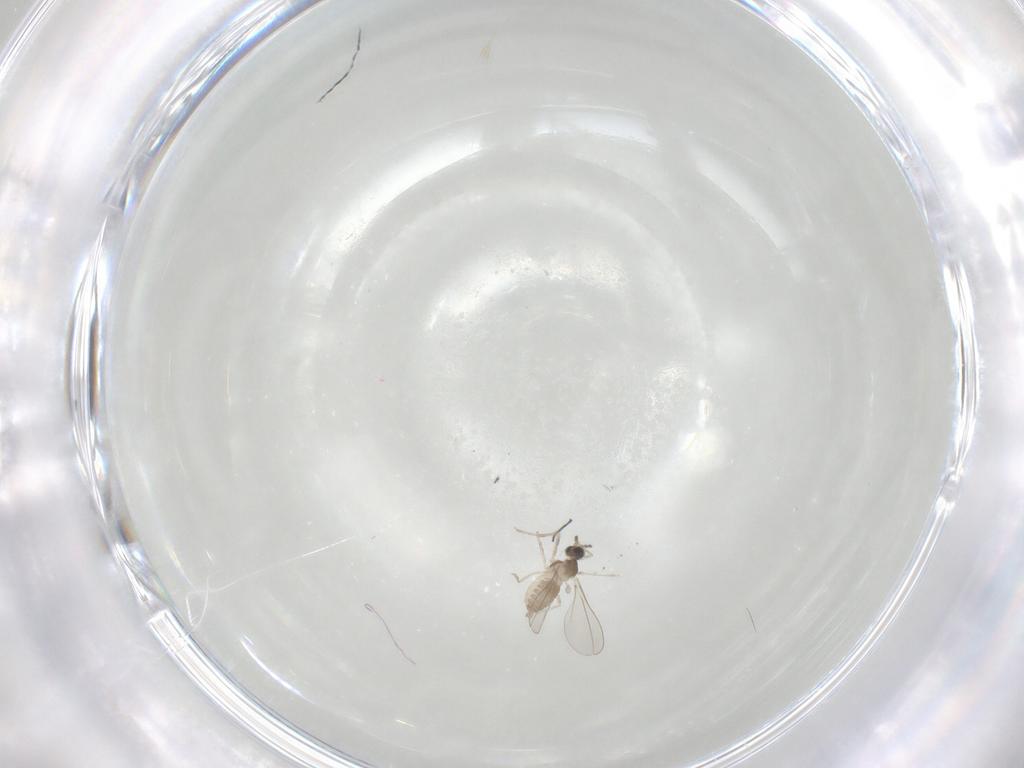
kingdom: Animalia
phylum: Arthropoda
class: Insecta
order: Diptera
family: Cecidomyiidae
